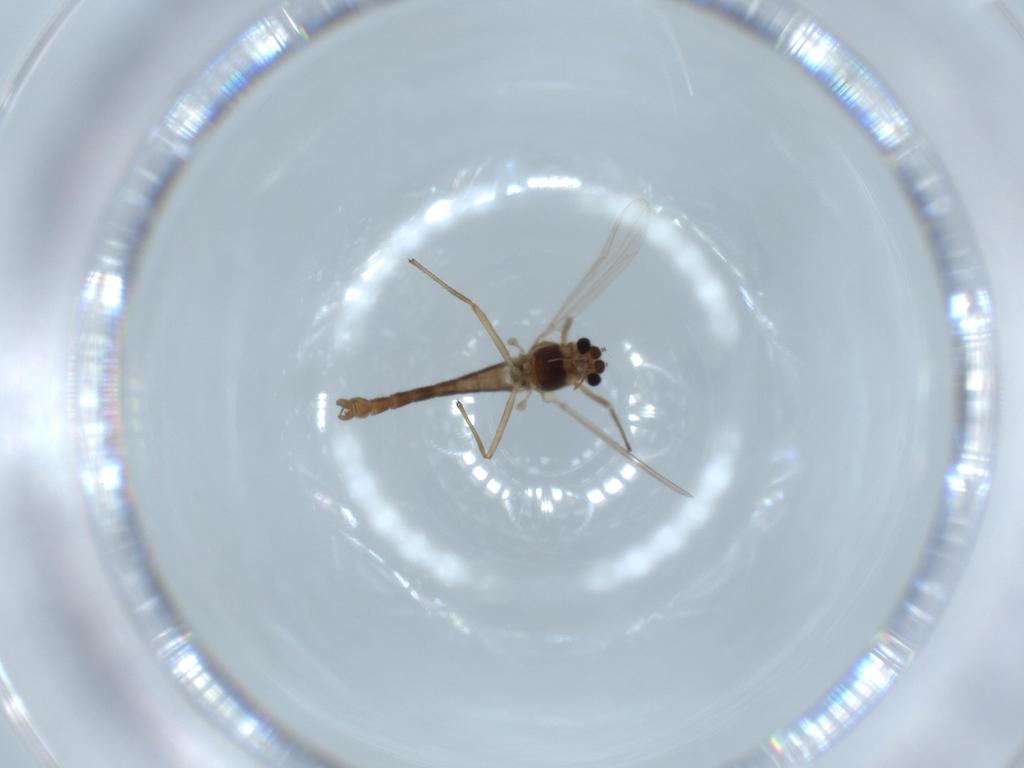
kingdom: Animalia
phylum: Arthropoda
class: Insecta
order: Diptera
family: Chironomidae
